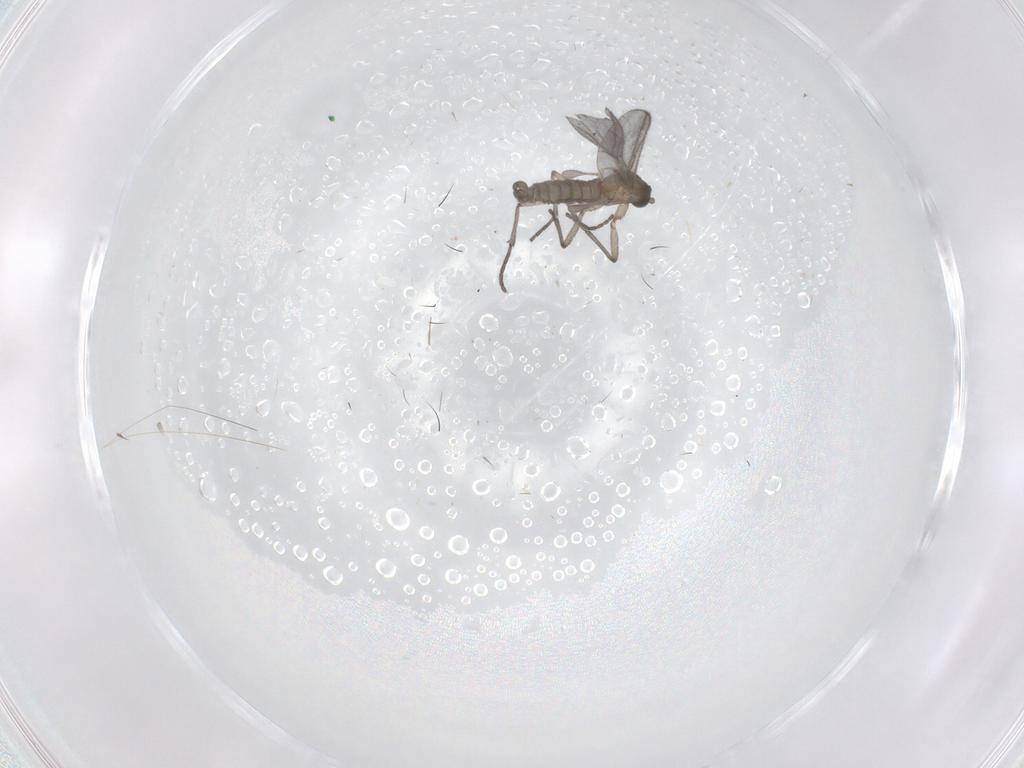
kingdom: Animalia
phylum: Arthropoda
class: Insecta
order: Diptera
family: Sciaridae
